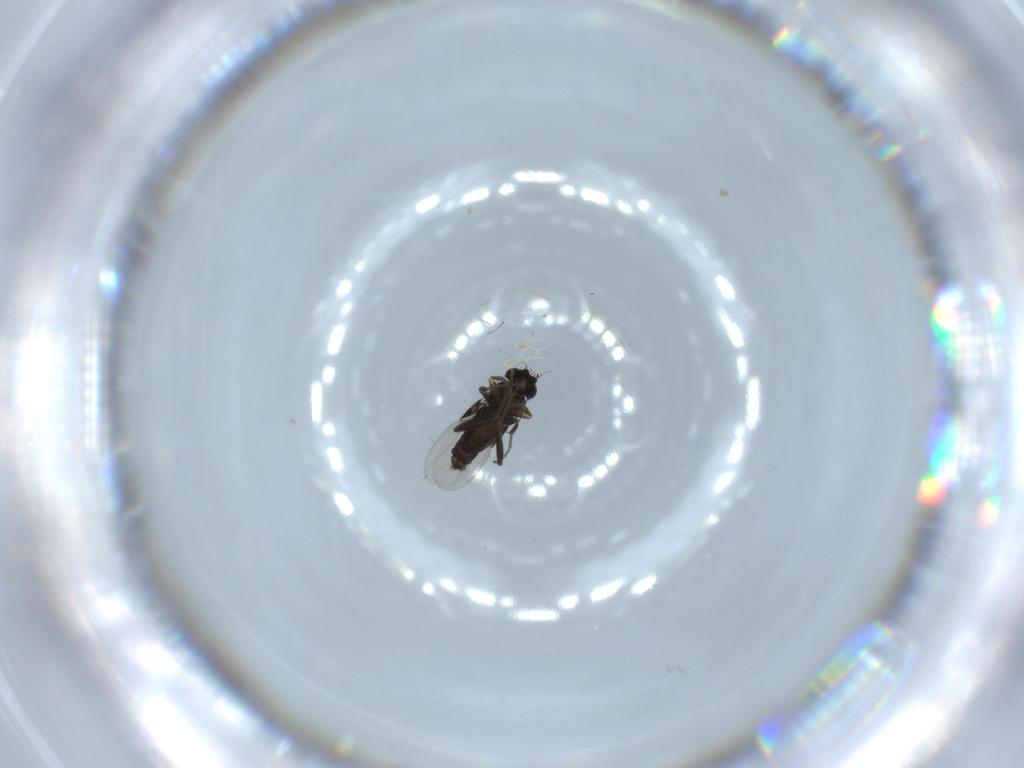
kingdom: Animalia
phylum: Arthropoda
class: Insecta
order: Diptera
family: Phoridae
